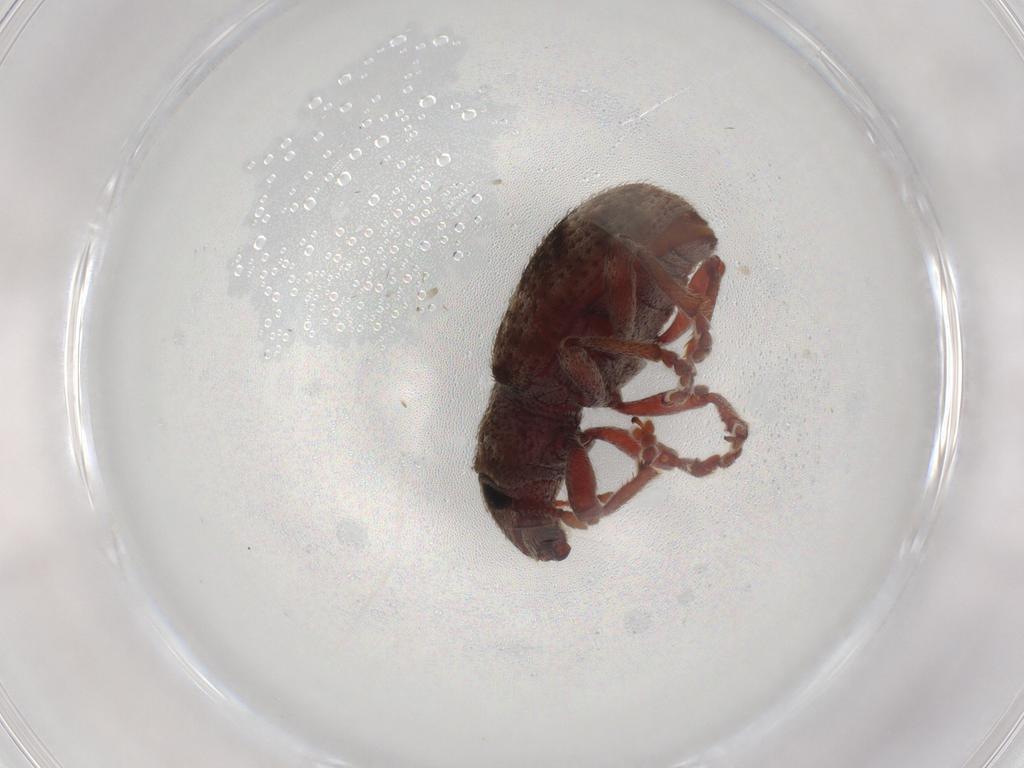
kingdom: Animalia
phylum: Arthropoda
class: Insecta
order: Coleoptera
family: Curculionidae
